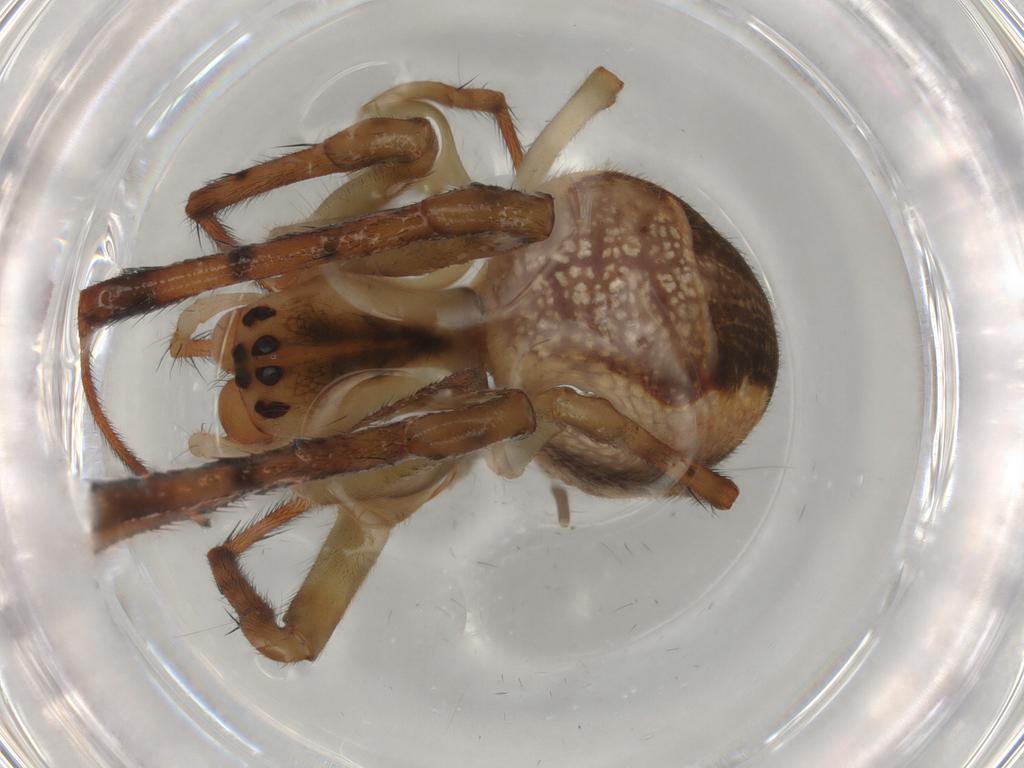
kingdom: Animalia
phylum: Arthropoda
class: Arachnida
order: Araneae
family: Tetragnathidae
